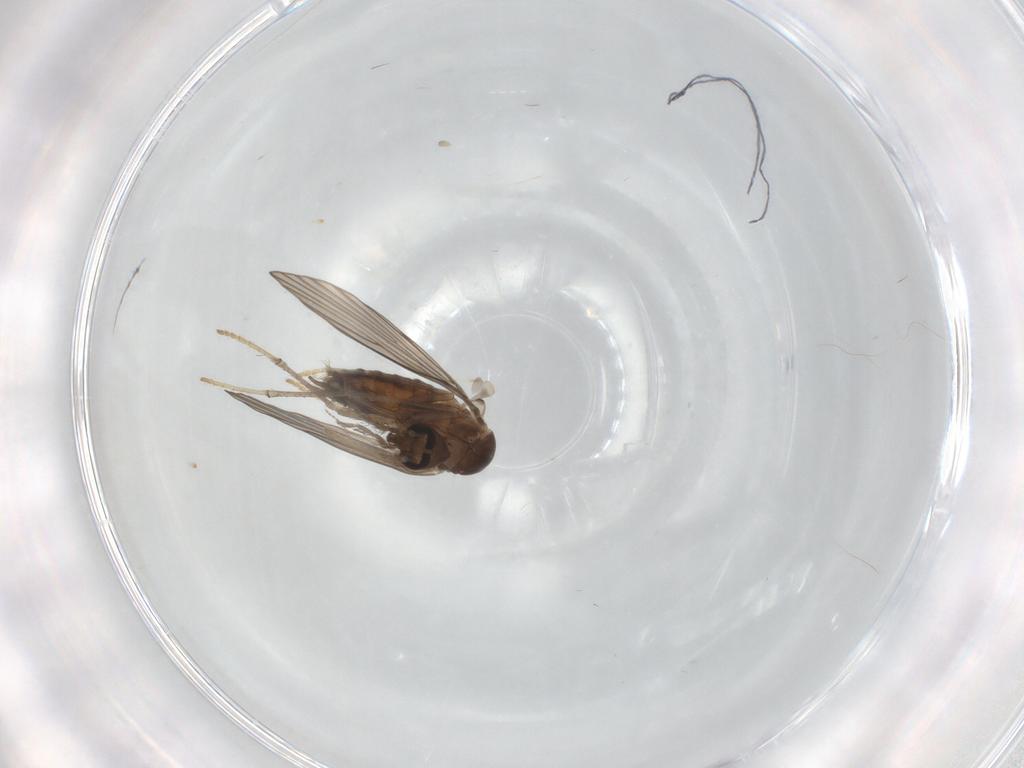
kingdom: Animalia
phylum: Arthropoda
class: Insecta
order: Diptera
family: Psychodidae
